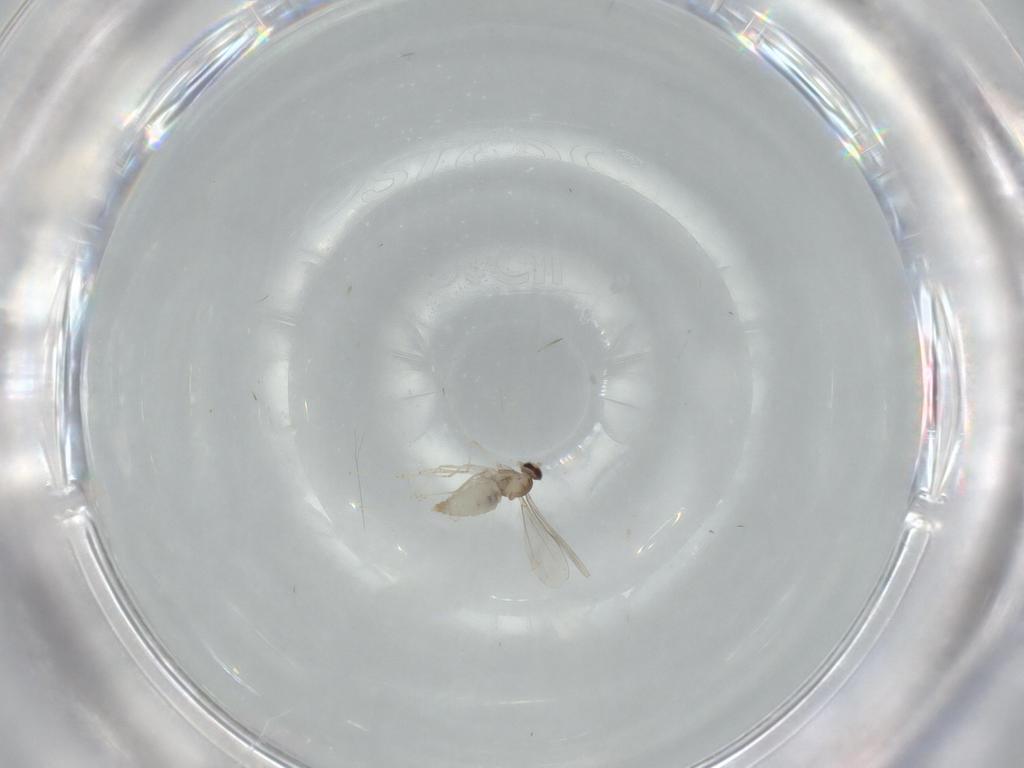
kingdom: Animalia
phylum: Arthropoda
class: Insecta
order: Diptera
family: Cecidomyiidae
